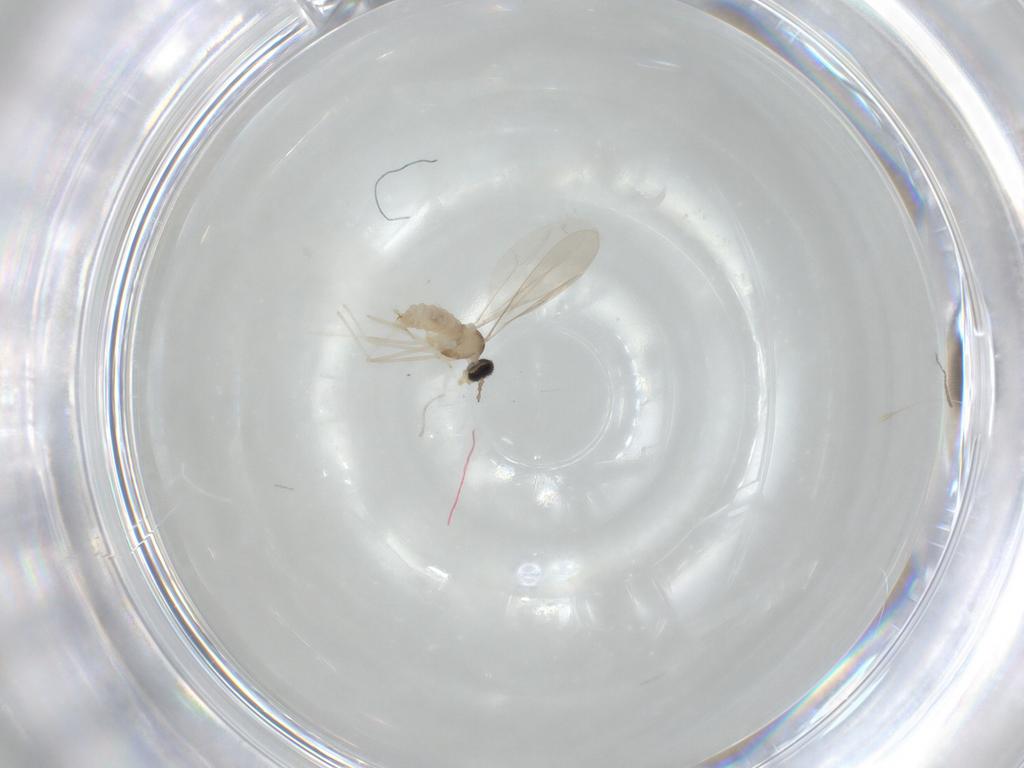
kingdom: Animalia
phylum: Arthropoda
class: Insecta
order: Diptera
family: Cecidomyiidae
